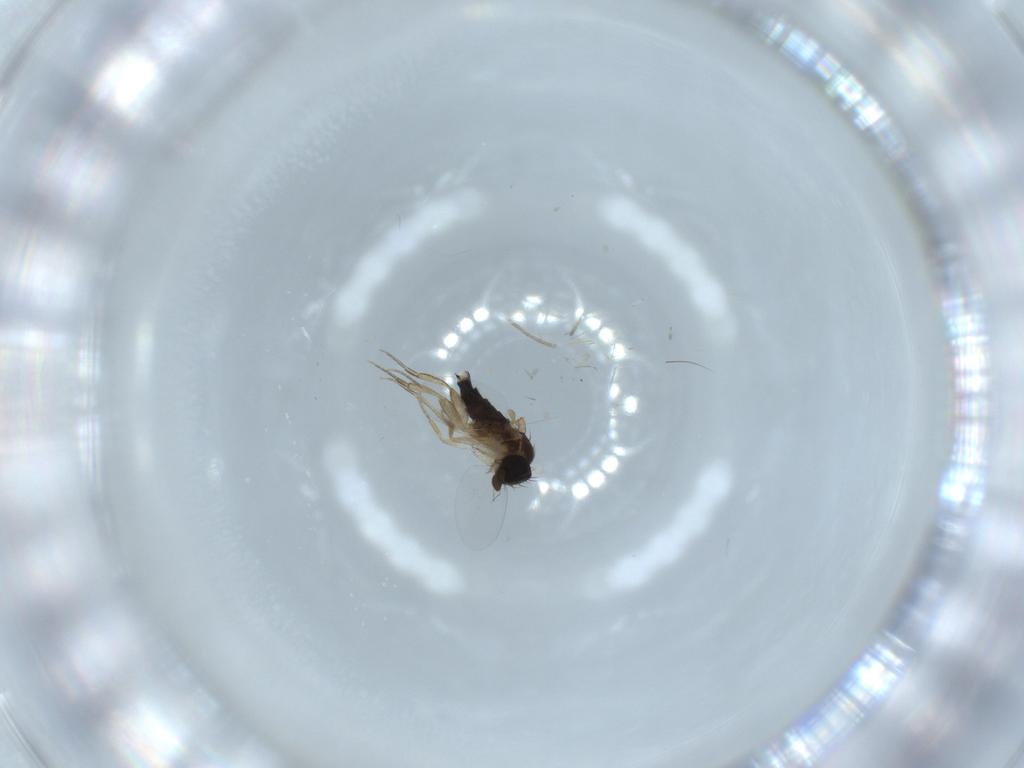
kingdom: Animalia
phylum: Arthropoda
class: Insecta
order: Diptera
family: Phoridae
